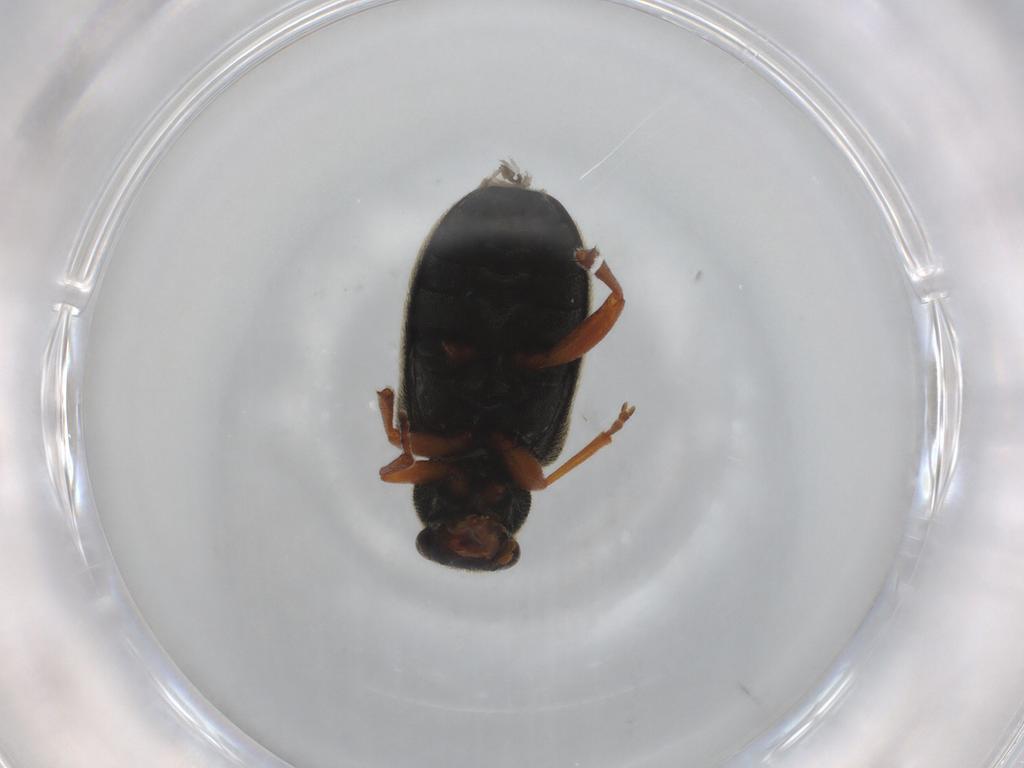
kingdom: Animalia
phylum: Arthropoda
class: Insecta
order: Coleoptera
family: Chrysomelidae
